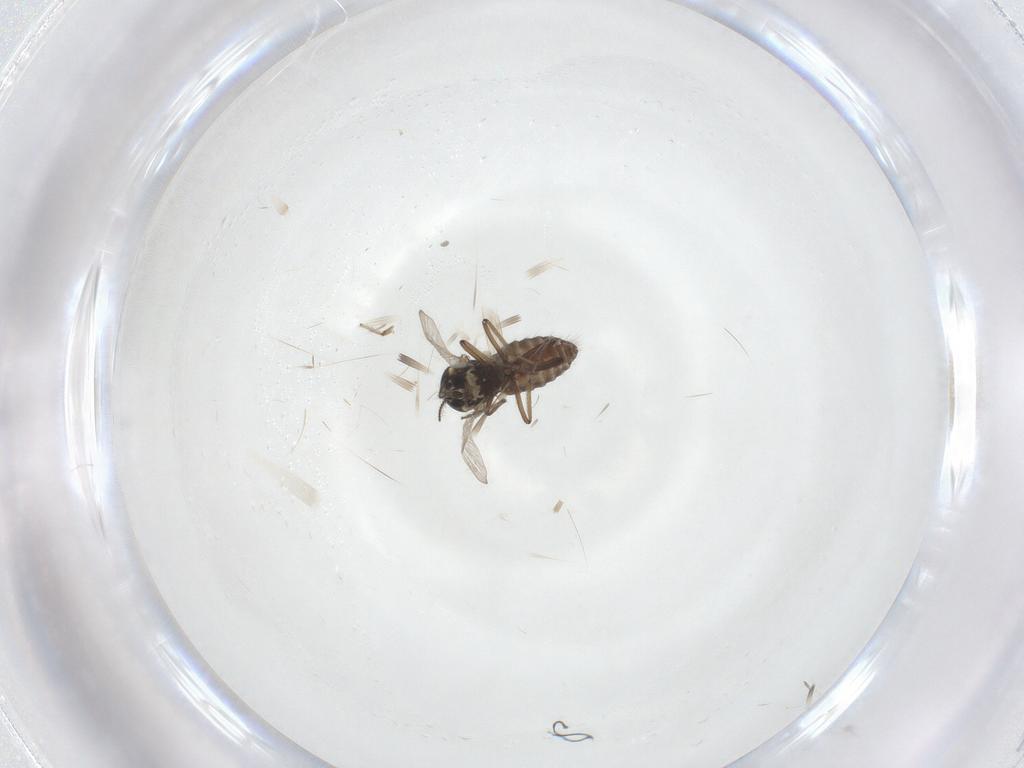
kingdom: Animalia
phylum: Arthropoda
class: Insecta
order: Diptera
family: Ceratopogonidae
